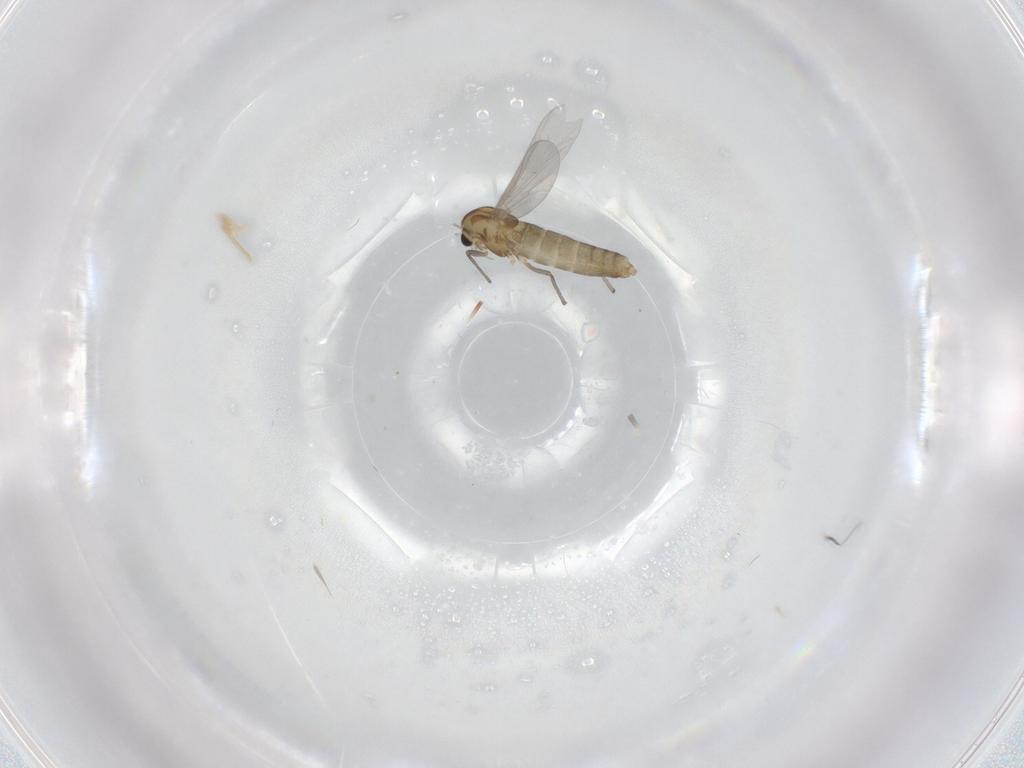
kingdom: Animalia
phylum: Arthropoda
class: Insecta
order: Diptera
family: Chironomidae
